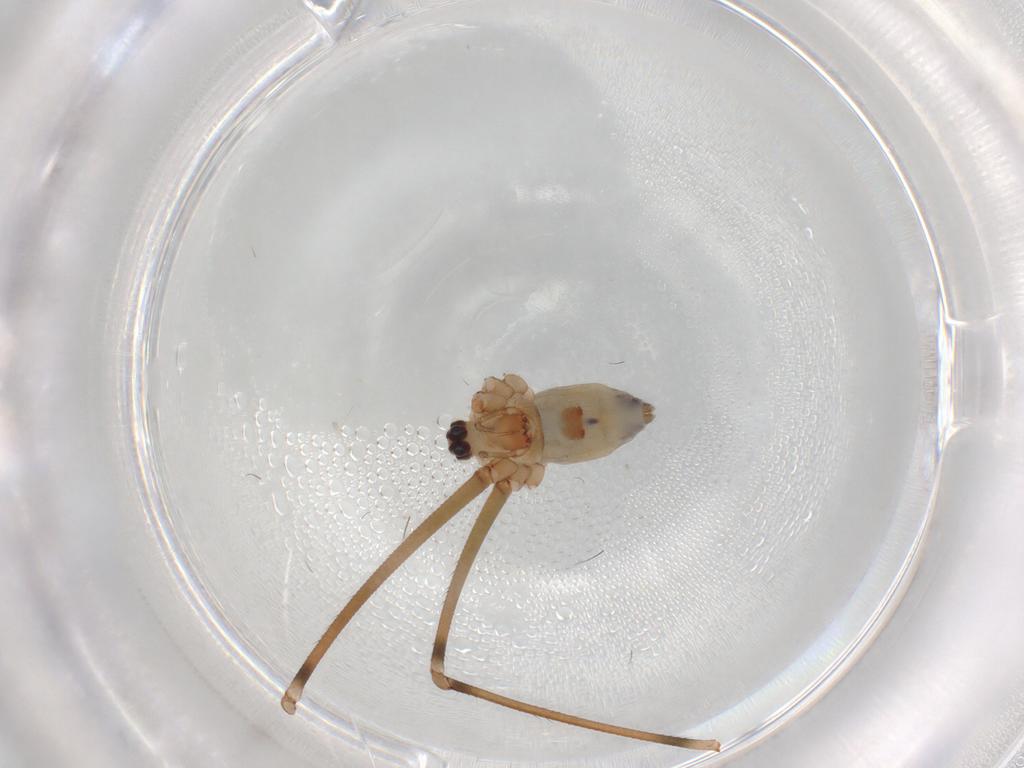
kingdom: Animalia
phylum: Arthropoda
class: Arachnida
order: Araneae
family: Pholcidae
